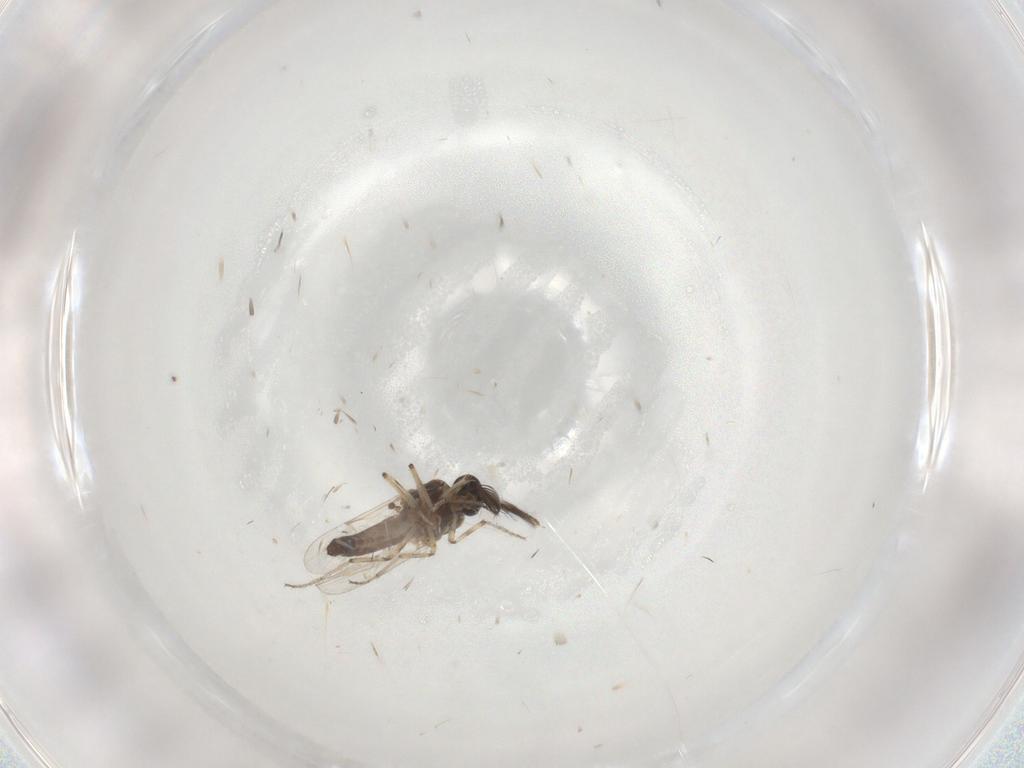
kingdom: Animalia
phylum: Arthropoda
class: Insecta
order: Diptera
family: Ceratopogonidae
